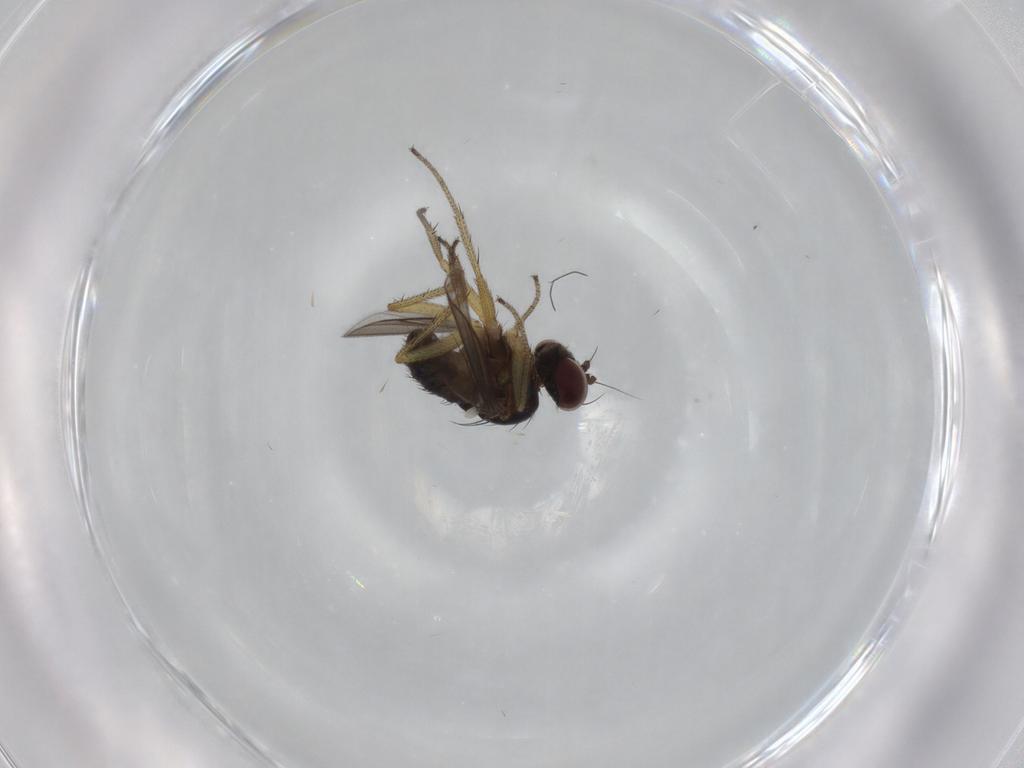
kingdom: Animalia
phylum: Arthropoda
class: Insecta
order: Diptera
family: Dolichopodidae
